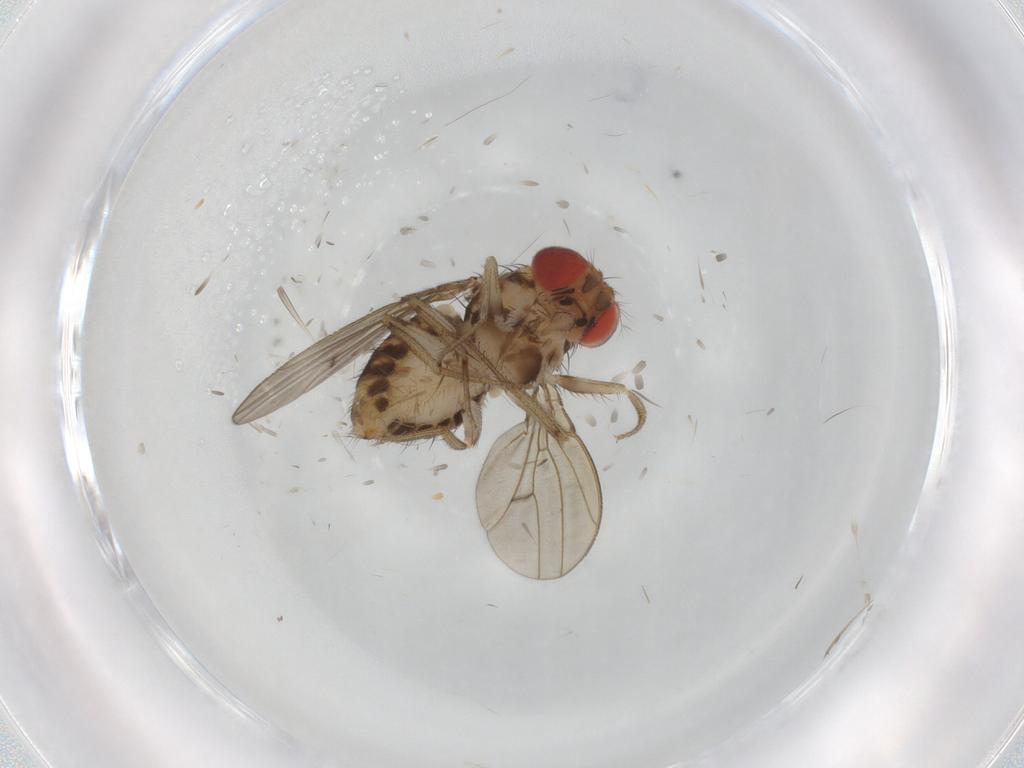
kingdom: Animalia
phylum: Arthropoda
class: Insecta
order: Diptera
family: Drosophilidae
